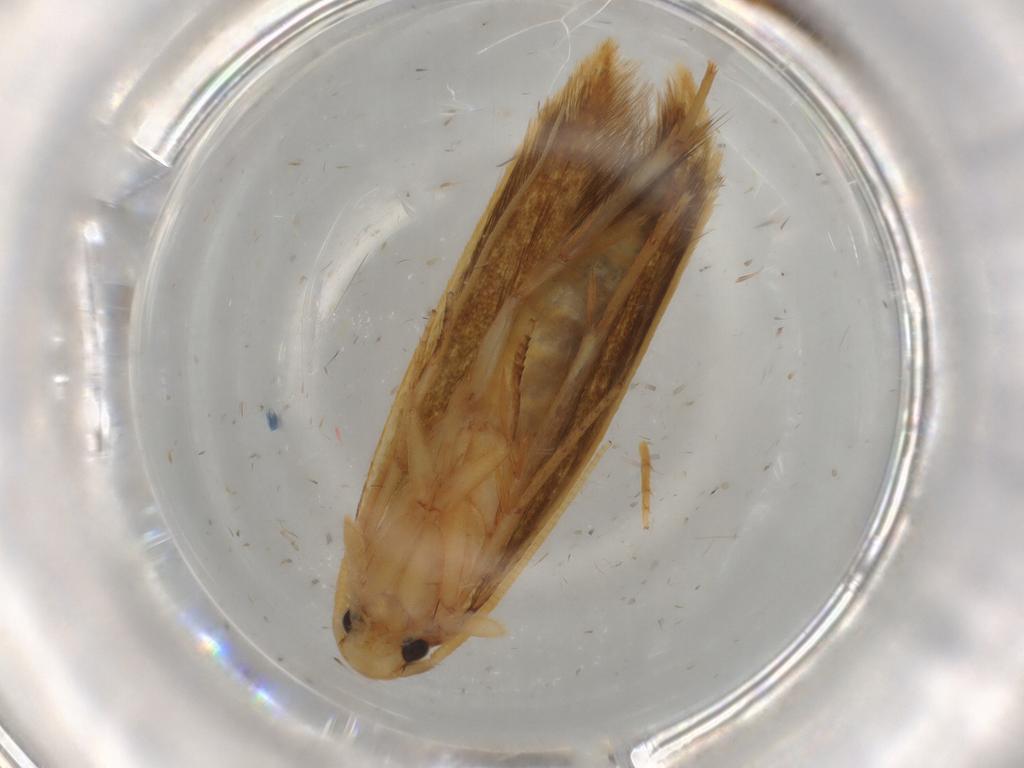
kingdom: Animalia
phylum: Arthropoda
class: Insecta
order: Lepidoptera
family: Tineidae
